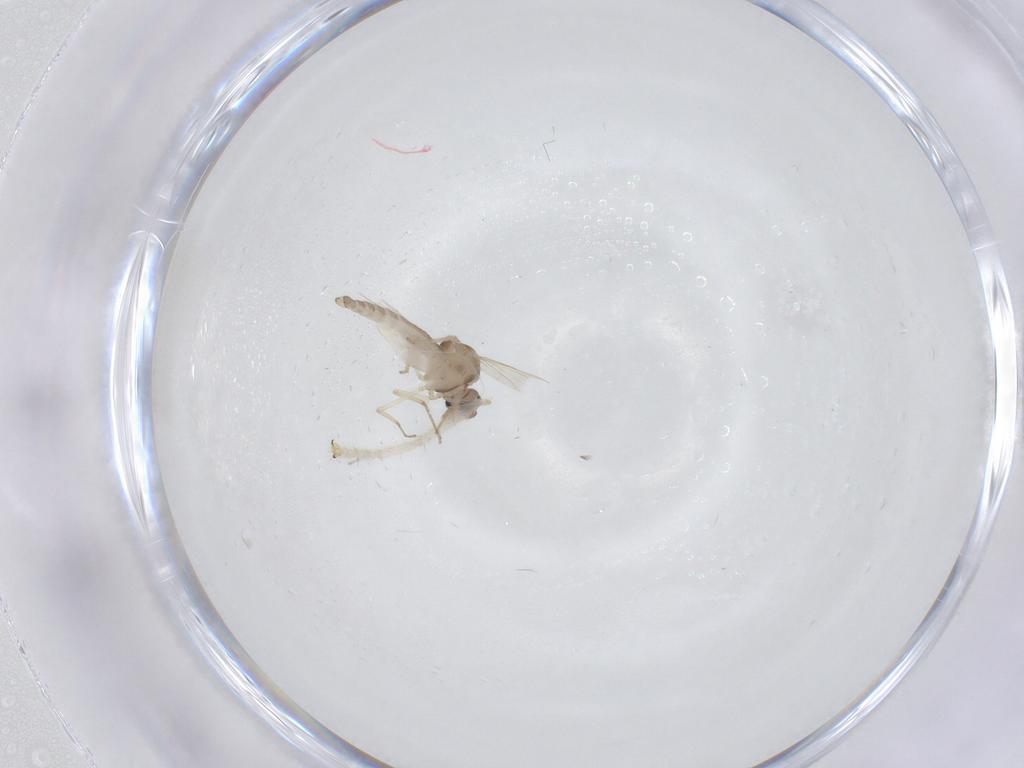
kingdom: Animalia
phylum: Arthropoda
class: Insecta
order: Diptera
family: Ceratopogonidae
